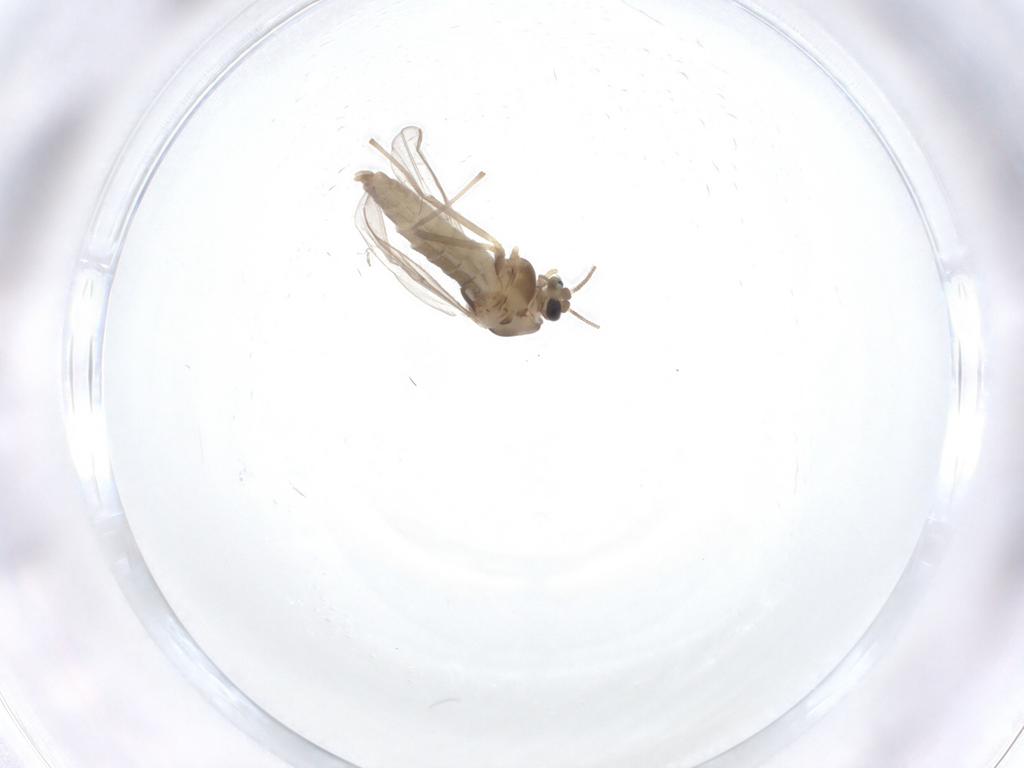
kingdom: Animalia
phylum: Arthropoda
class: Insecta
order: Diptera
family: Chironomidae
